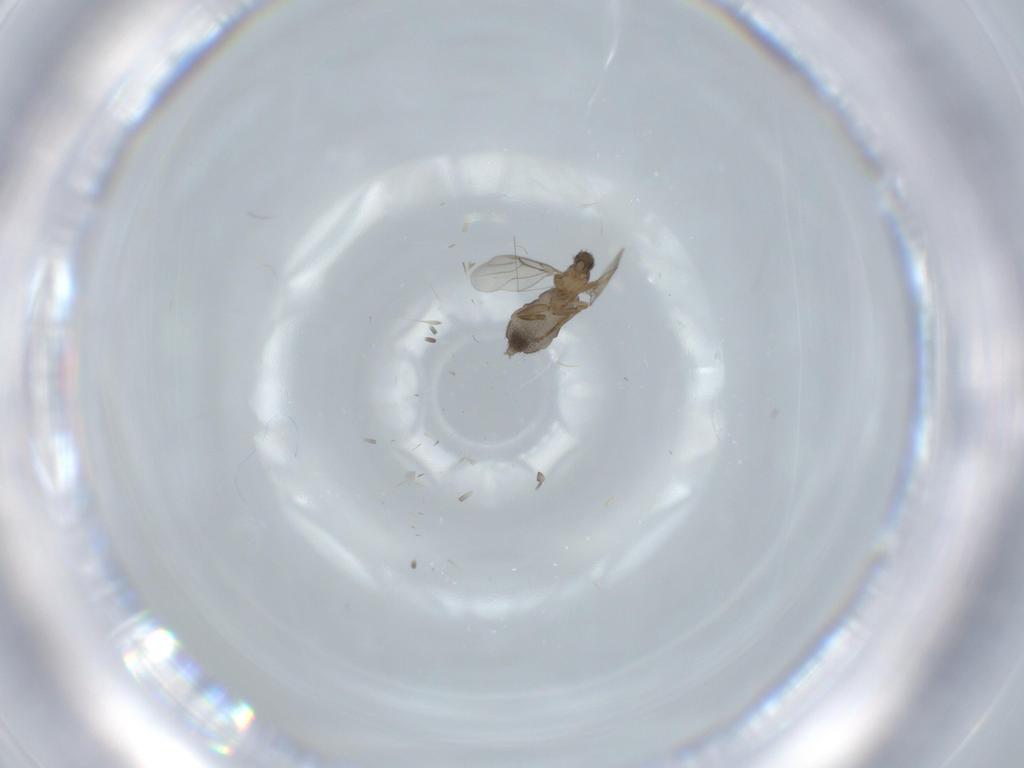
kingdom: Animalia
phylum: Arthropoda
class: Insecta
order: Diptera
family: Phoridae
